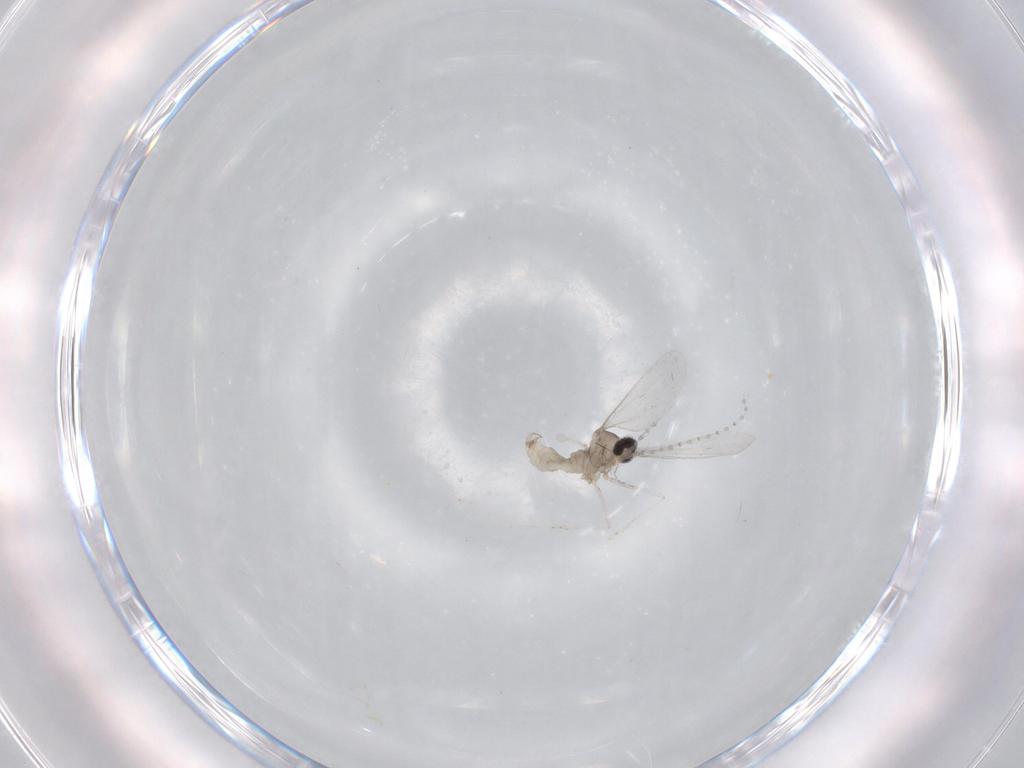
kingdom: Animalia
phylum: Arthropoda
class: Insecta
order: Diptera
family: Cecidomyiidae
